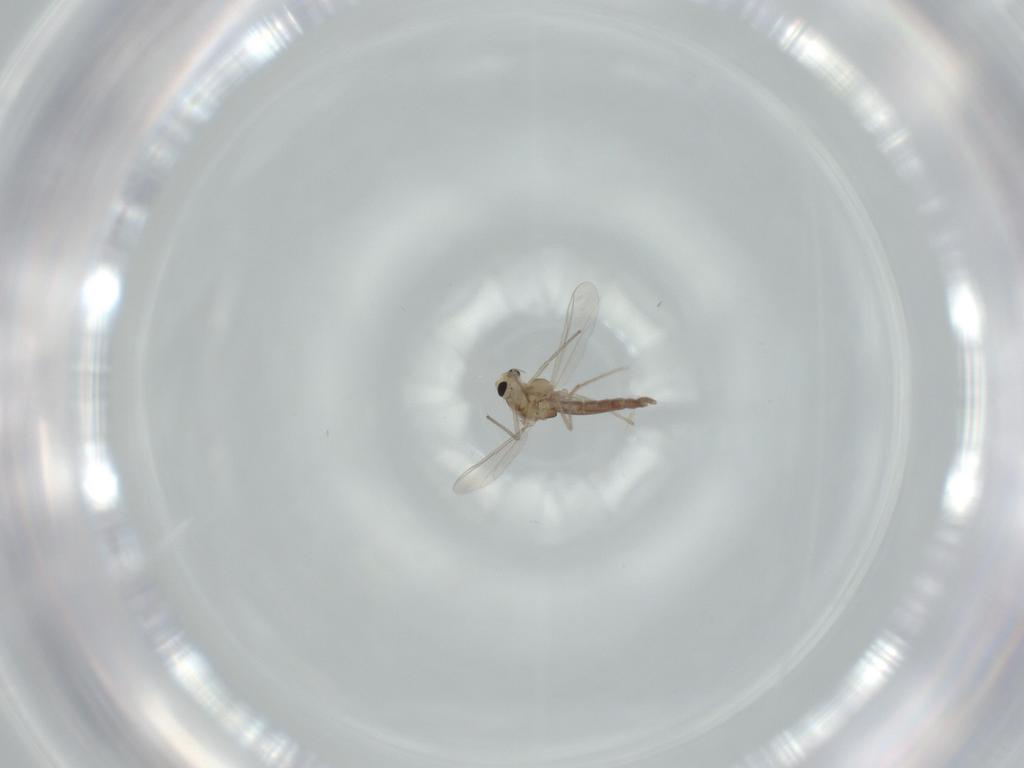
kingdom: Animalia
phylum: Arthropoda
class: Insecta
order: Diptera
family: Chironomidae
